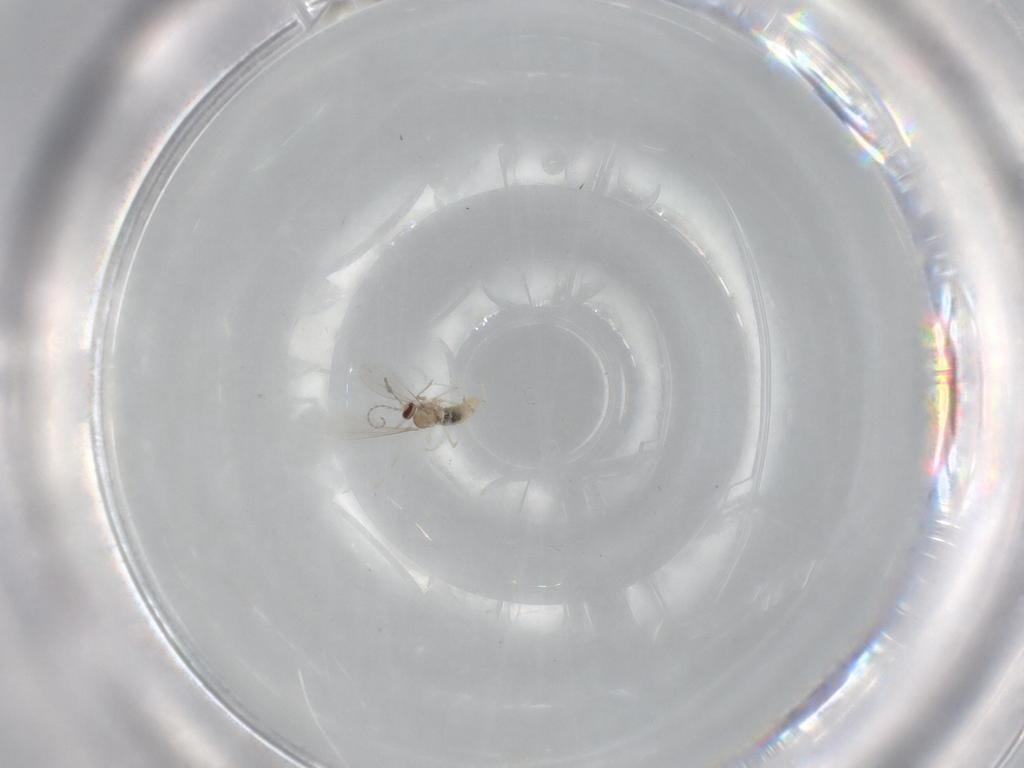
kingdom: Animalia
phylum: Arthropoda
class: Insecta
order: Diptera
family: Cecidomyiidae
